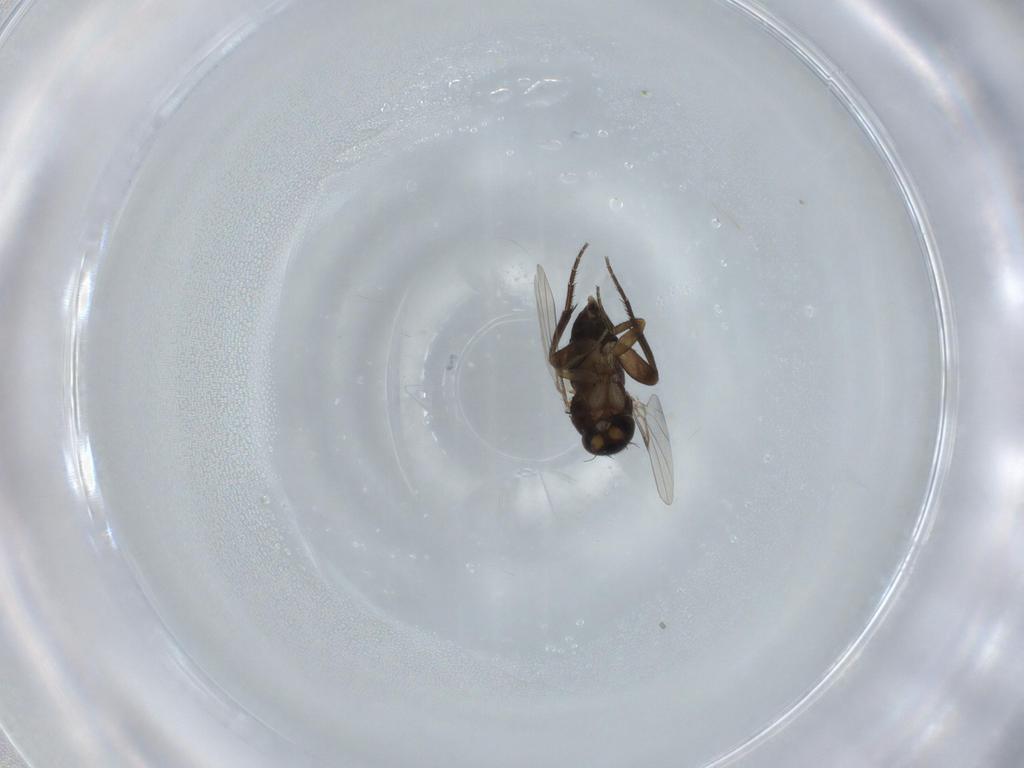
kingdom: Animalia
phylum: Arthropoda
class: Insecta
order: Diptera
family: Phoridae
